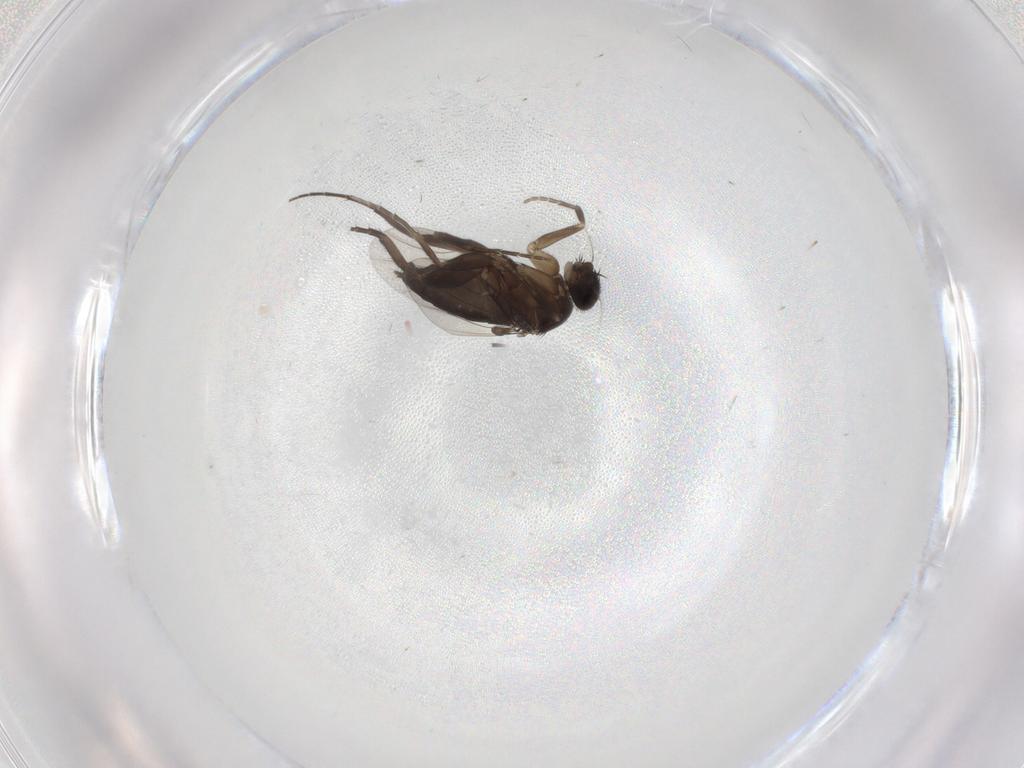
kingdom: Animalia
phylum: Arthropoda
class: Insecta
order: Diptera
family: Phoridae
